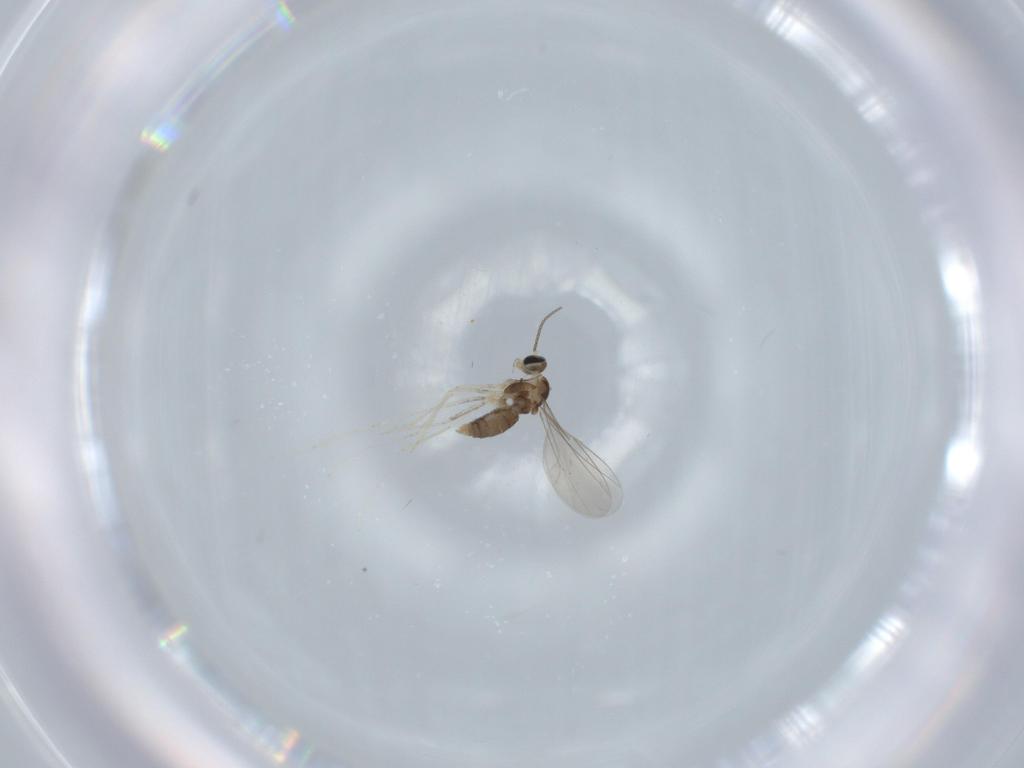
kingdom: Animalia
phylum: Arthropoda
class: Insecta
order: Diptera
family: Cecidomyiidae
